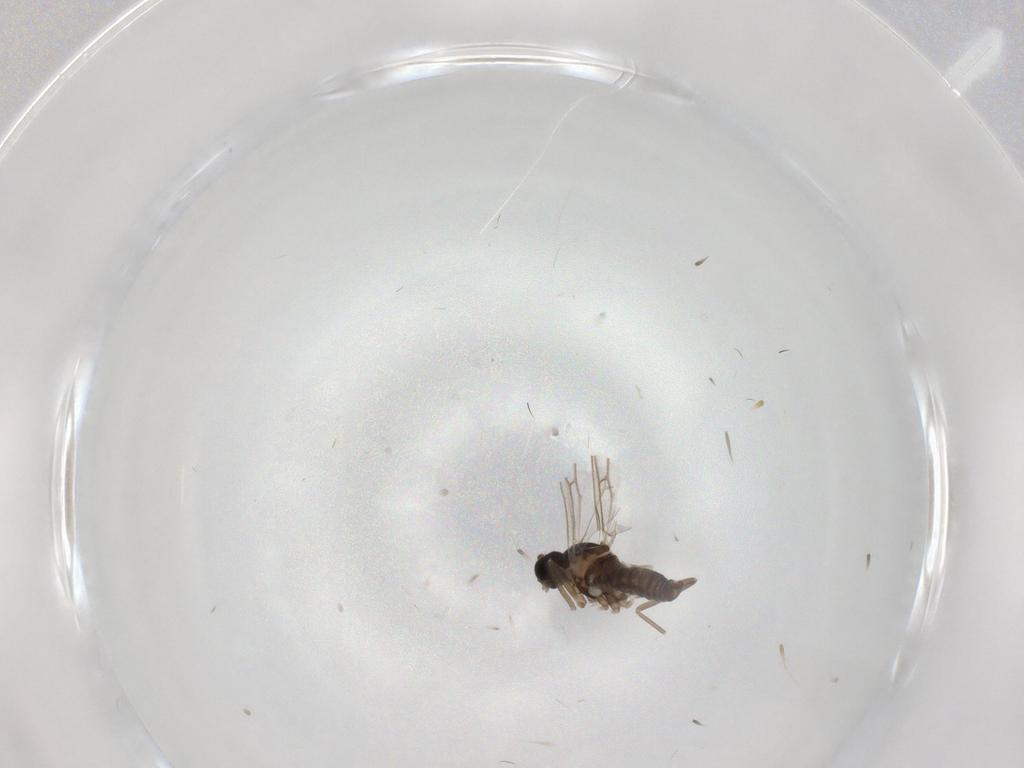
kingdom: Animalia
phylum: Arthropoda
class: Insecta
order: Diptera
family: Cecidomyiidae
